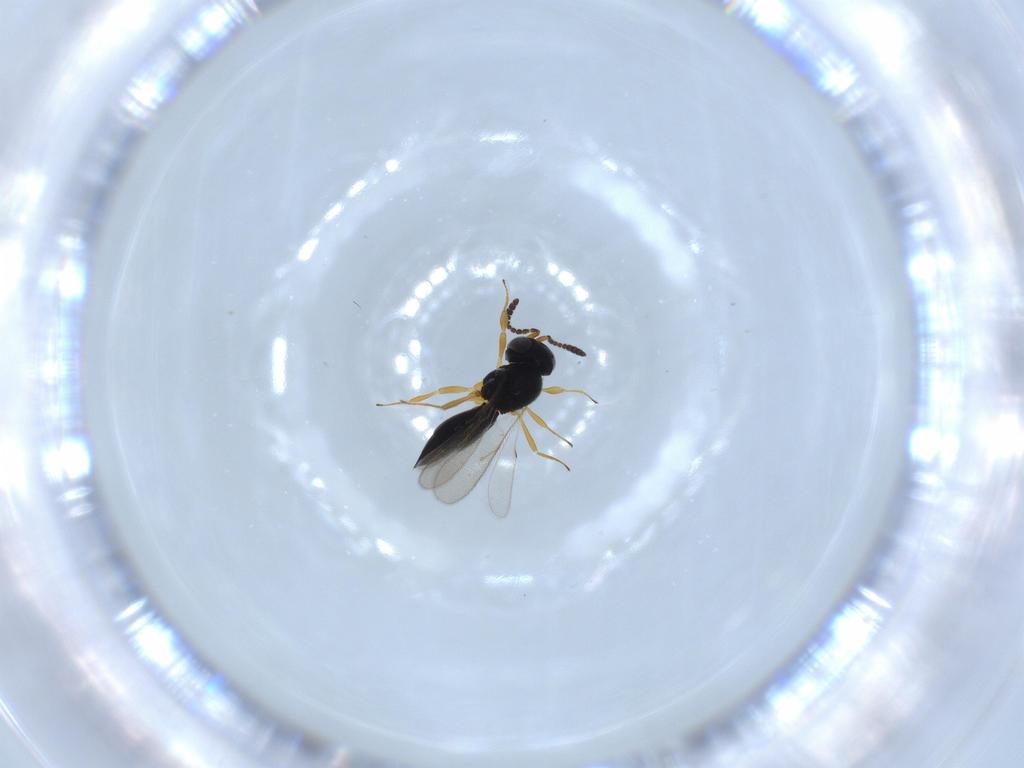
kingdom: Animalia
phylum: Arthropoda
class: Insecta
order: Hymenoptera
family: Scelionidae
